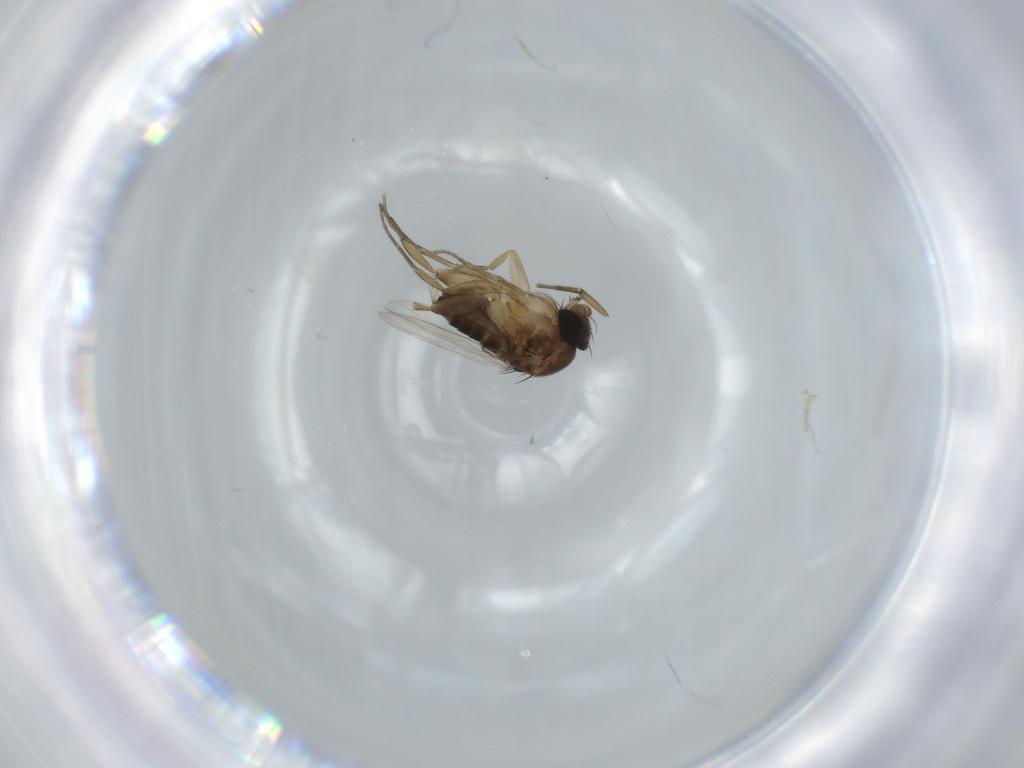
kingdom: Animalia
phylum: Arthropoda
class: Insecta
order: Diptera
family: Phoridae
